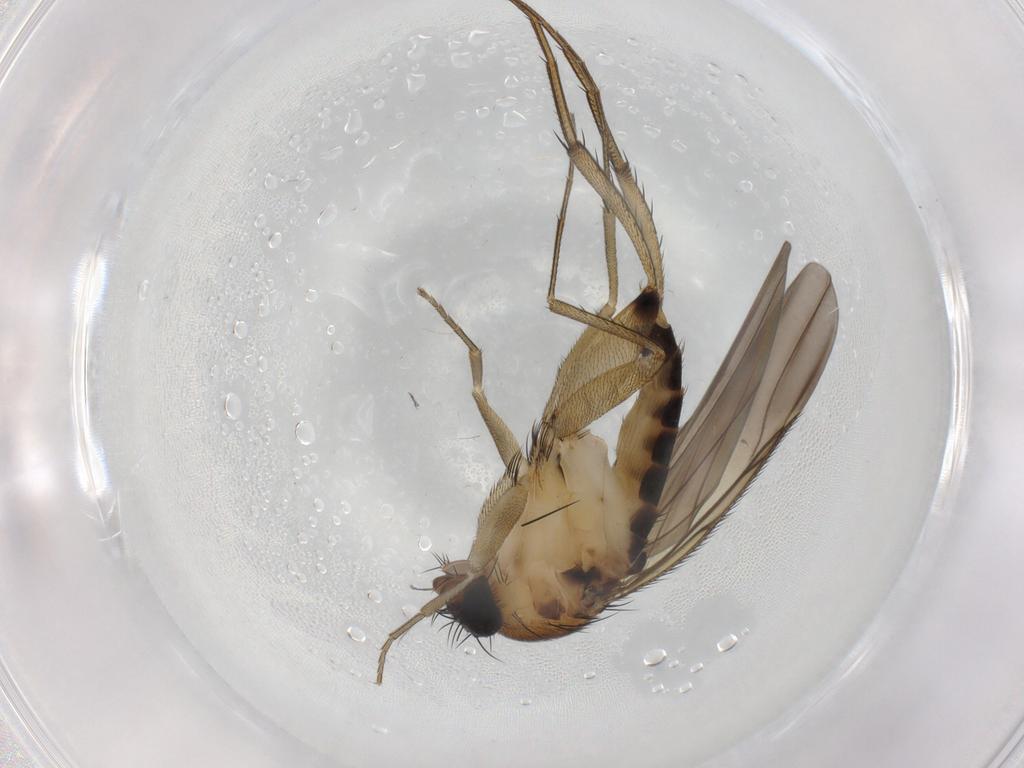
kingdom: Animalia
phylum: Arthropoda
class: Insecta
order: Diptera
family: Phoridae
